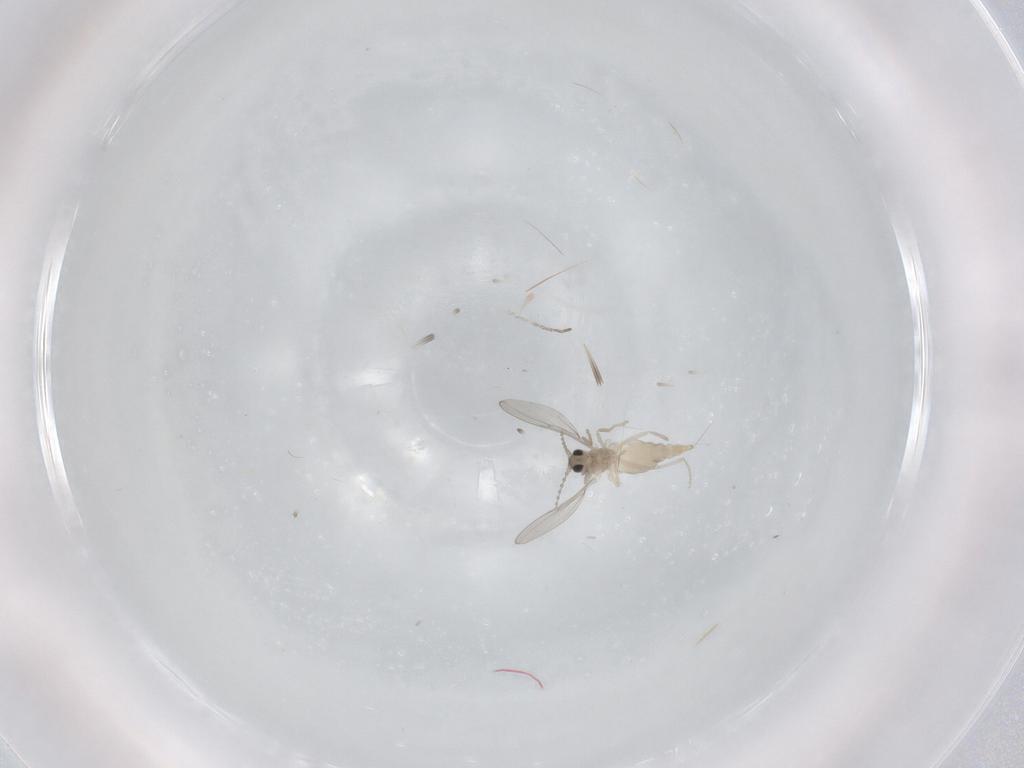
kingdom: Animalia
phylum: Arthropoda
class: Insecta
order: Diptera
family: Cecidomyiidae
